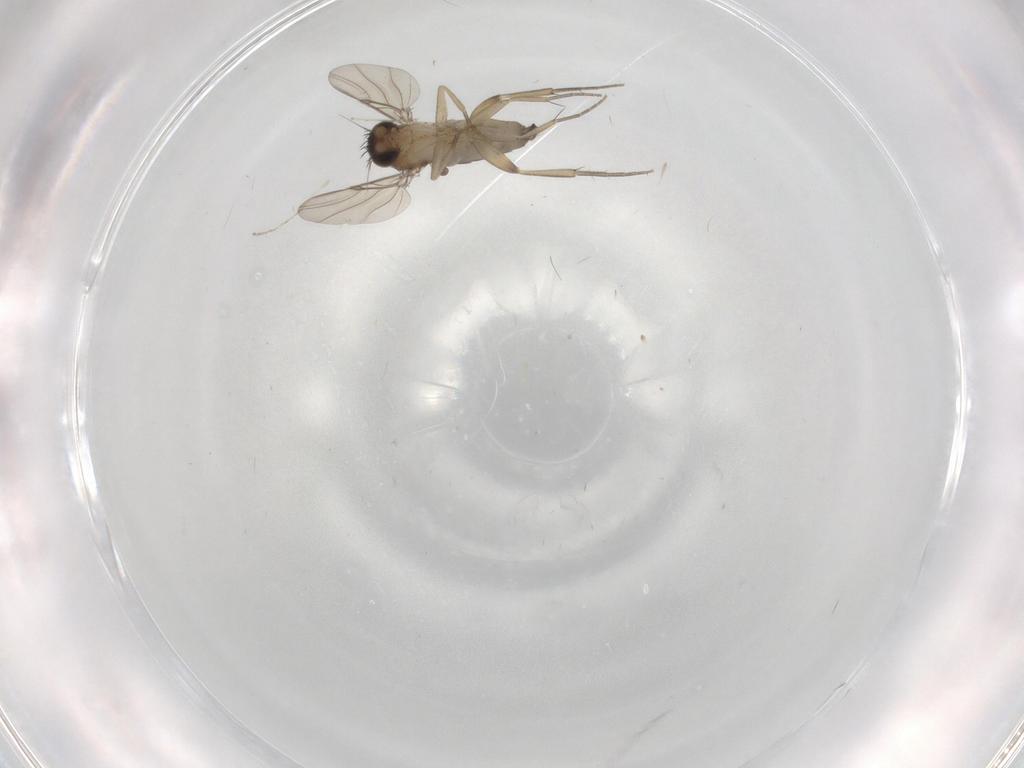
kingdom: Animalia
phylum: Arthropoda
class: Insecta
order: Diptera
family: Phoridae
